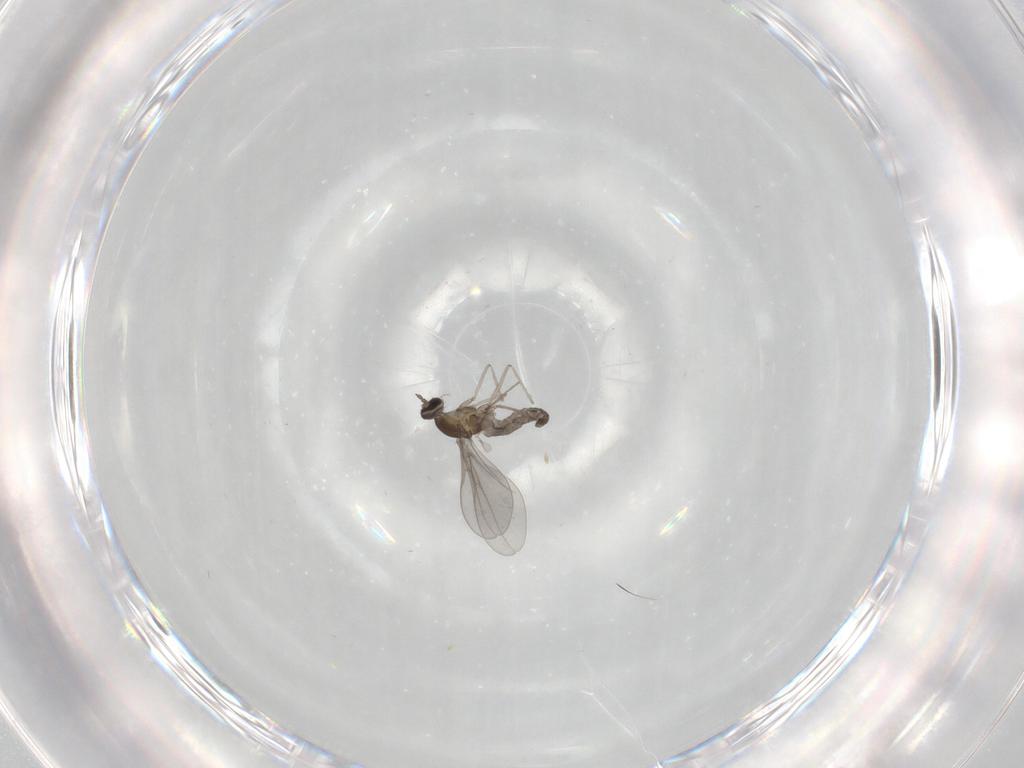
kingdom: Animalia
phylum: Arthropoda
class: Insecta
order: Diptera
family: Cecidomyiidae
